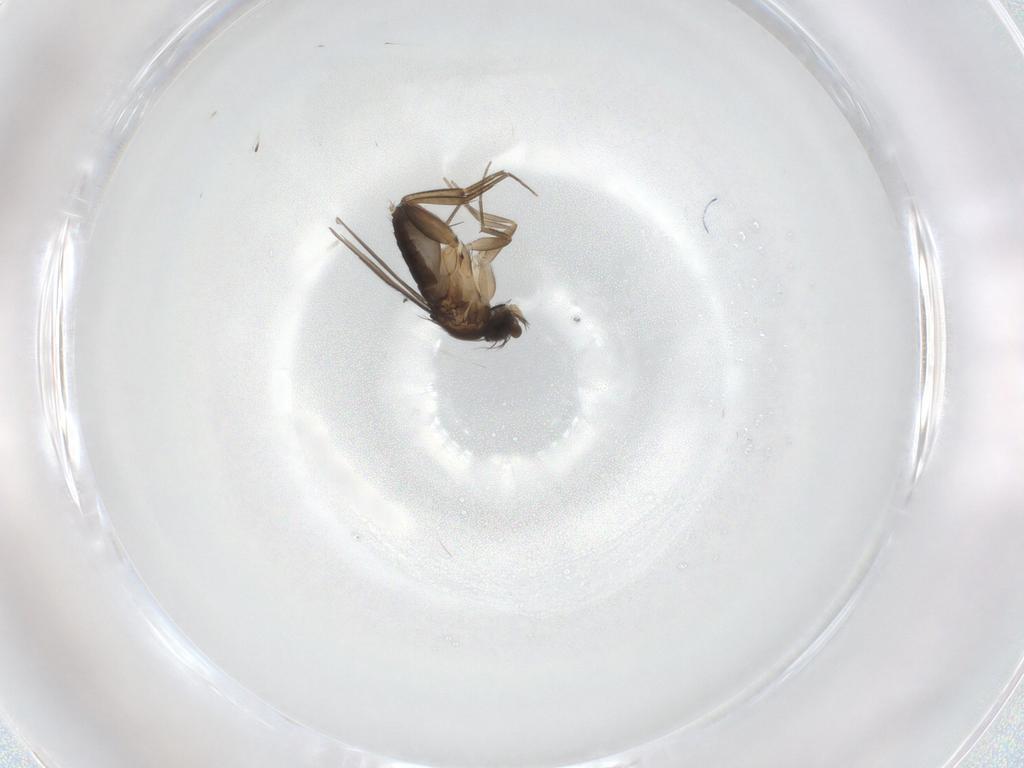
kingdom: Animalia
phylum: Arthropoda
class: Insecta
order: Diptera
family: Phoridae
